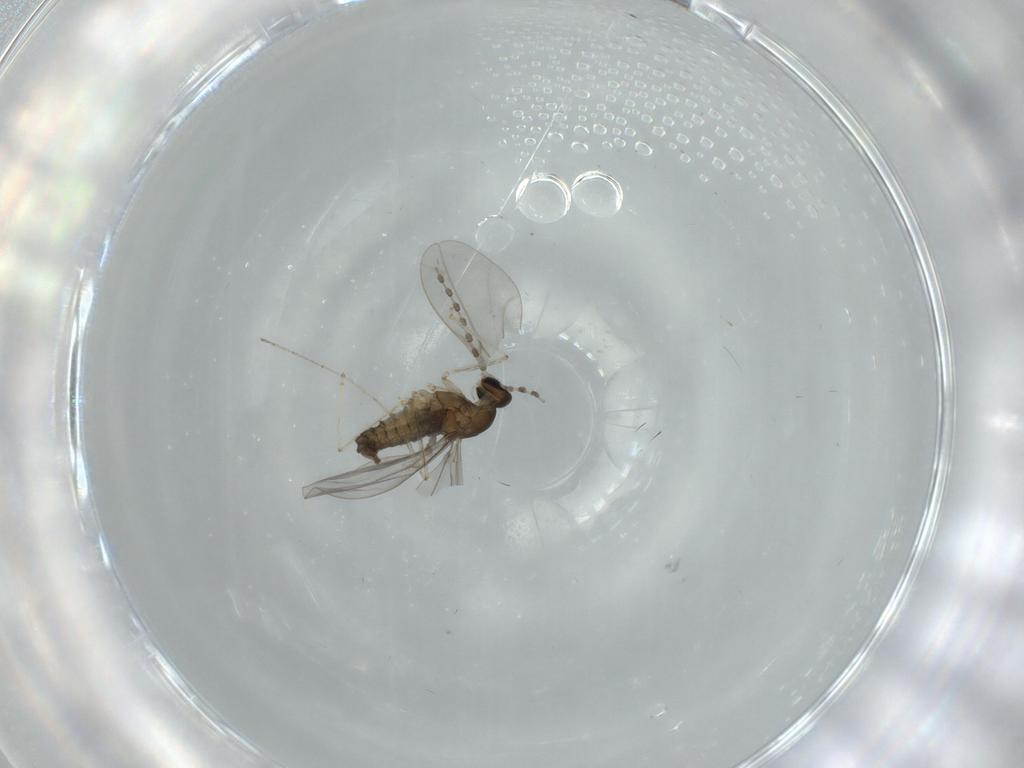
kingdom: Animalia
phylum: Arthropoda
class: Insecta
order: Diptera
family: Cecidomyiidae
